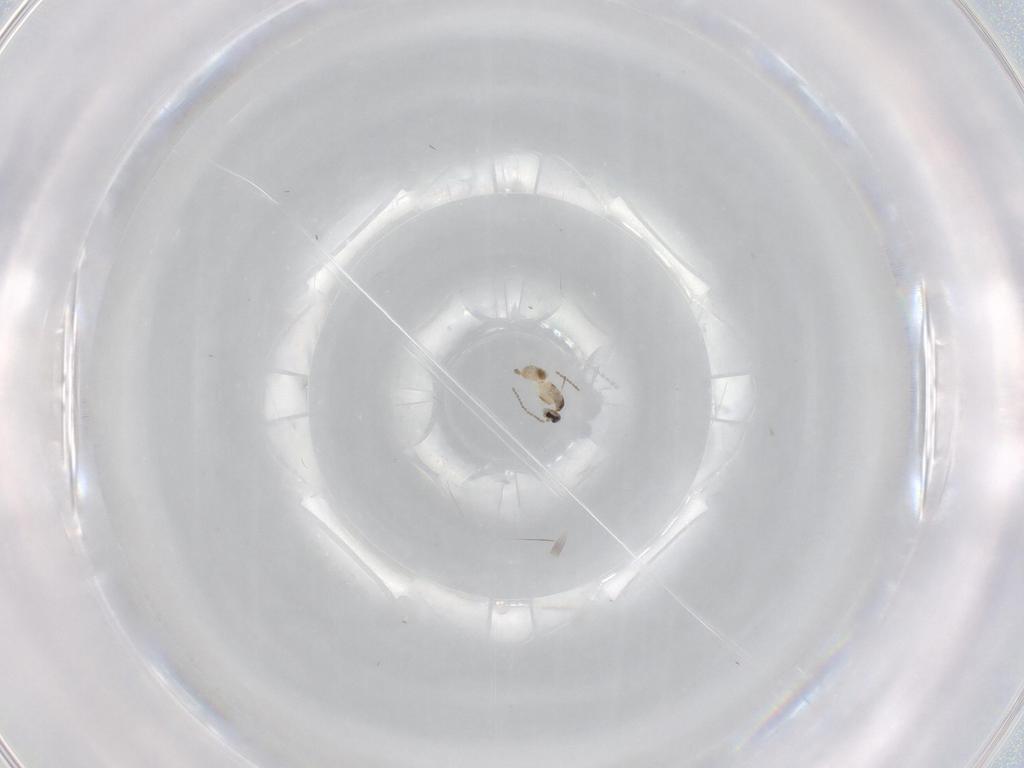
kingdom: Animalia
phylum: Arthropoda
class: Insecta
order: Diptera
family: Cecidomyiidae
